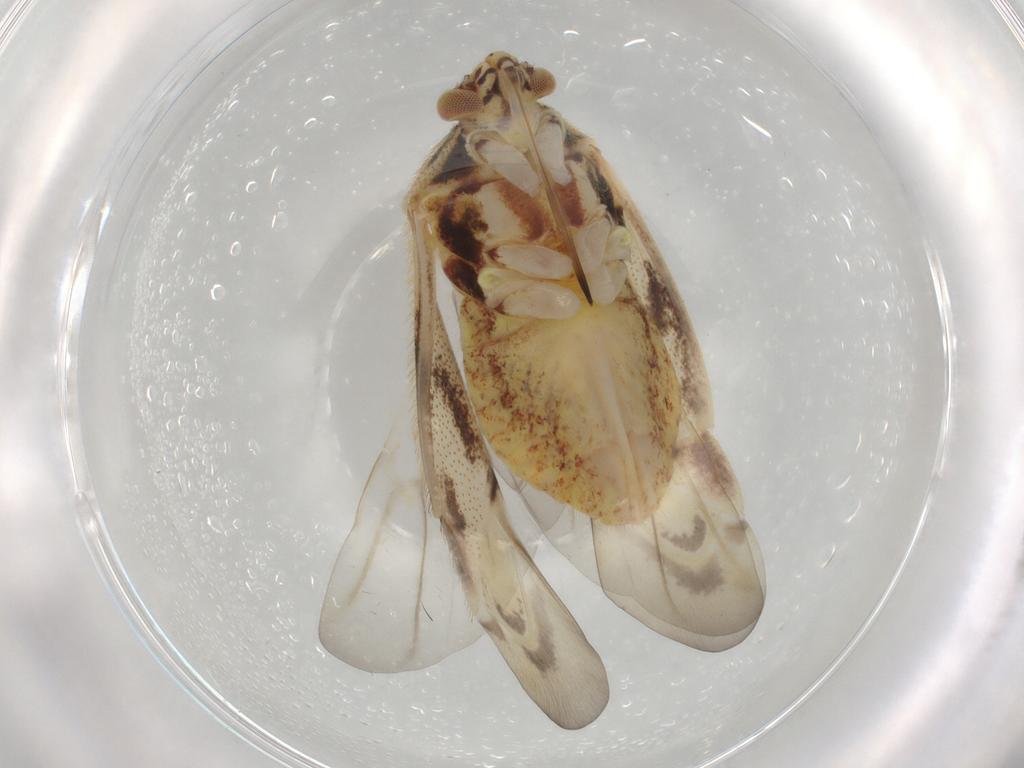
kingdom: Animalia
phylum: Arthropoda
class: Insecta
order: Hemiptera
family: Miridae
